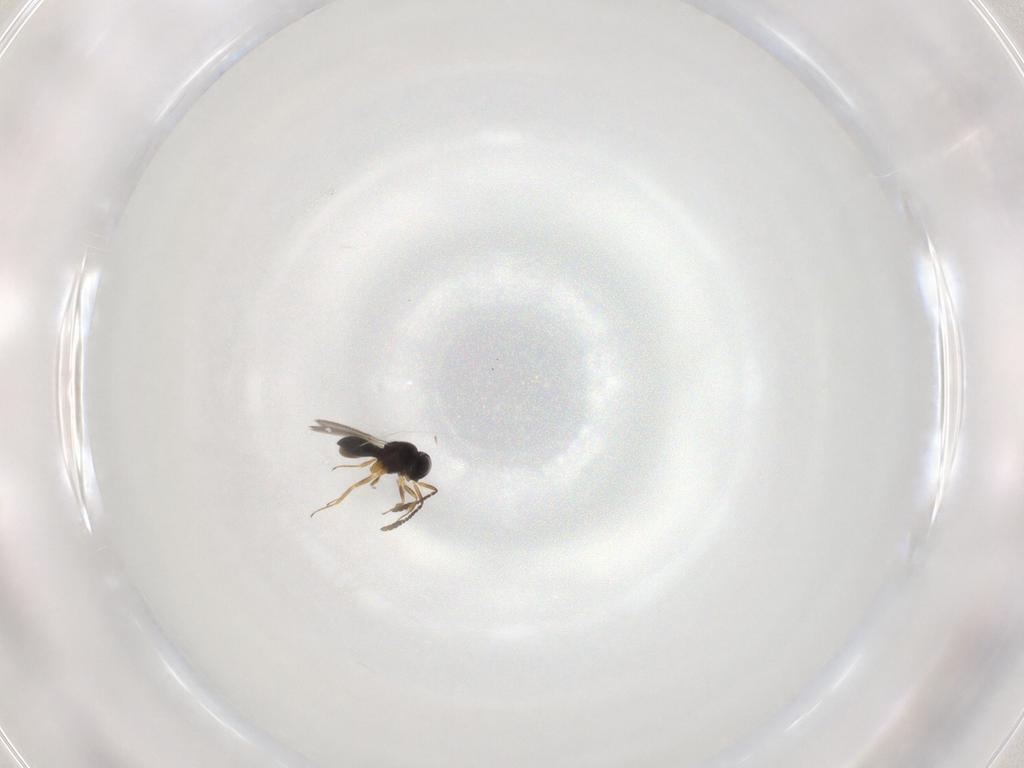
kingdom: Animalia
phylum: Arthropoda
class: Insecta
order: Hymenoptera
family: Scelionidae
